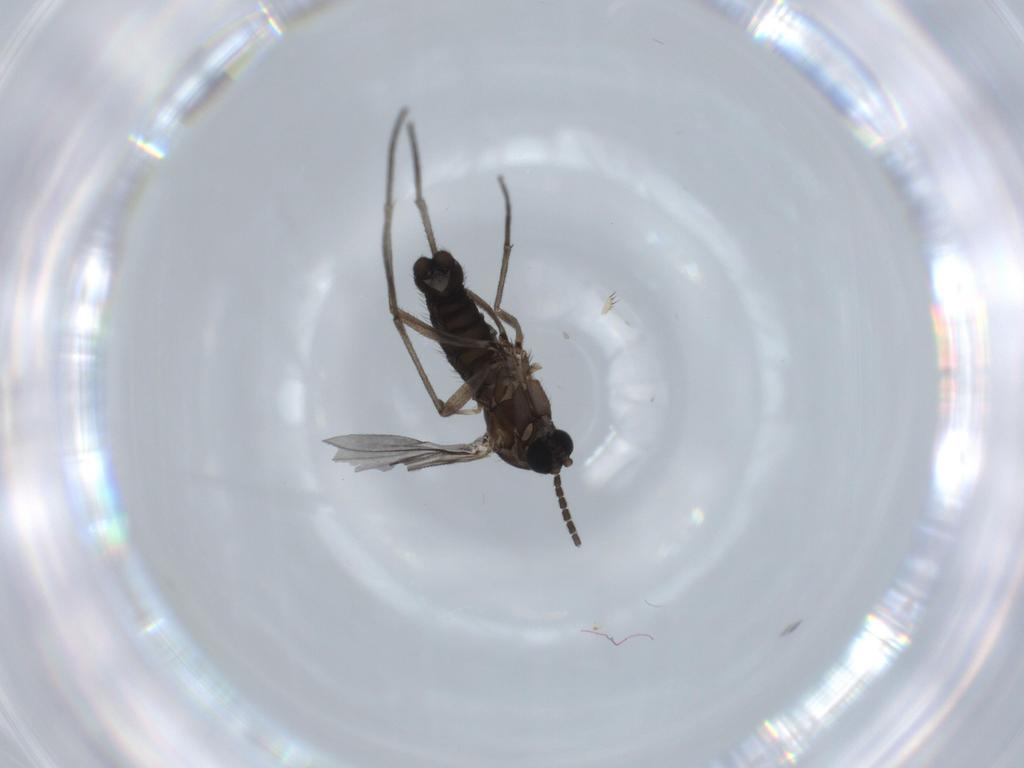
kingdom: Animalia
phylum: Arthropoda
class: Insecta
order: Diptera
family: Sciaridae
